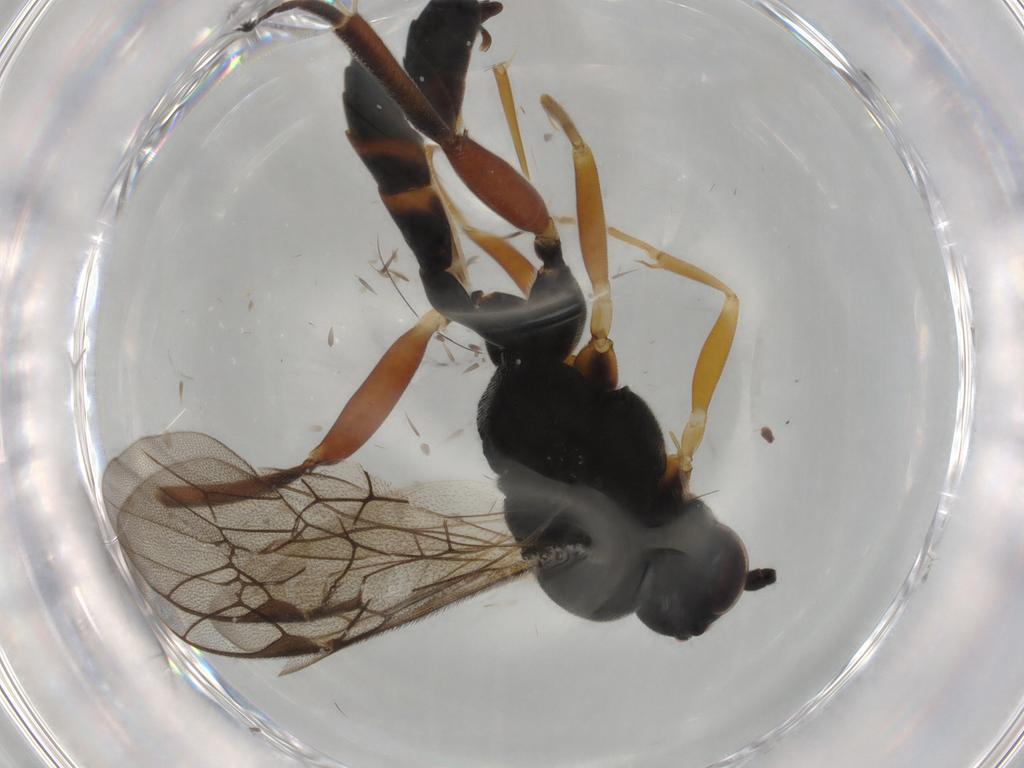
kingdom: Animalia
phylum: Arthropoda
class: Insecta
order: Hymenoptera
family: Ichneumonidae
